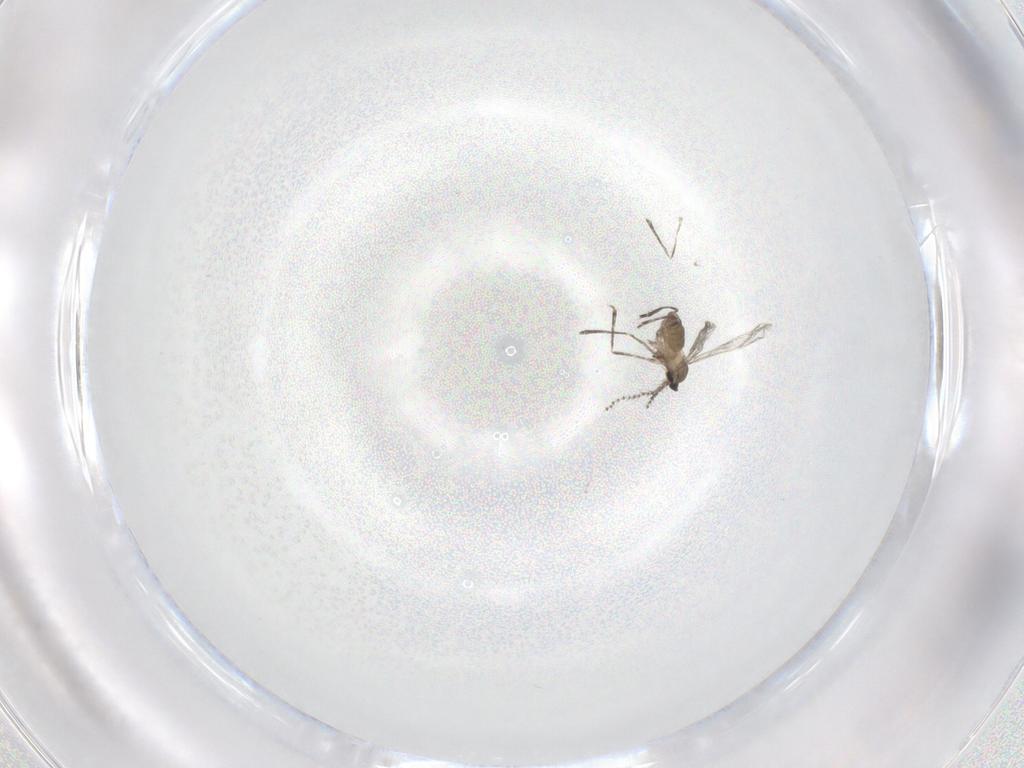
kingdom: Animalia
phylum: Arthropoda
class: Insecta
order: Diptera
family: Cecidomyiidae
